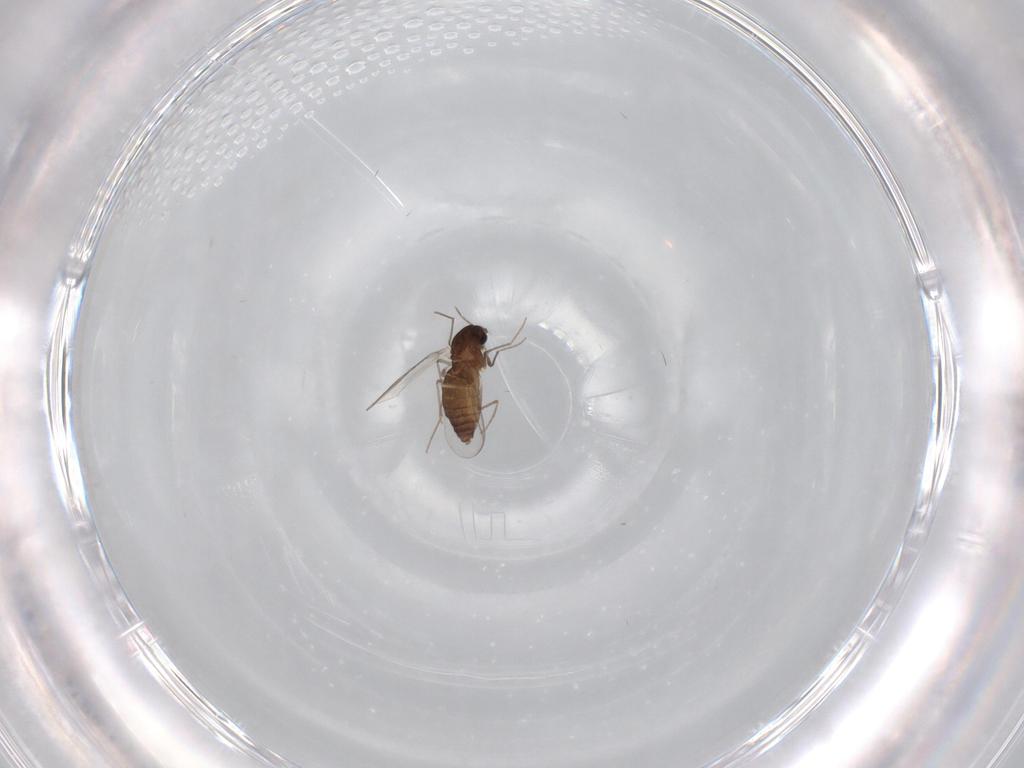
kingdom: Animalia
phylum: Arthropoda
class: Insecta
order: Diptera
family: Chironomidae
